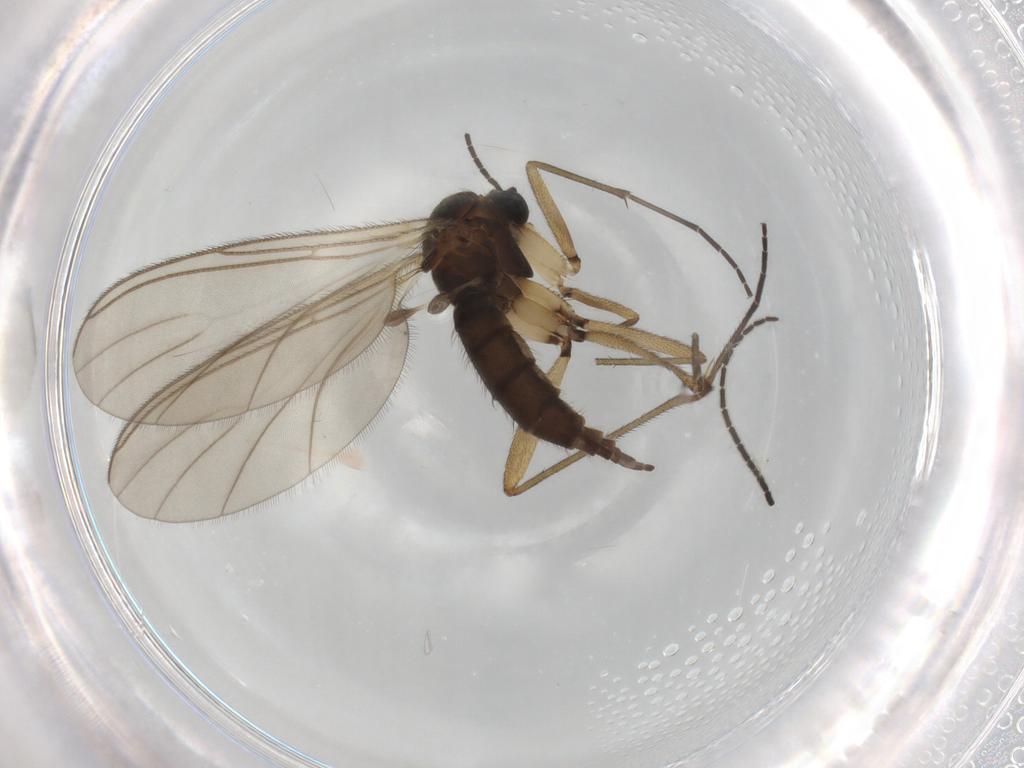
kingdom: Animalia
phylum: Arthropoda
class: Insecta
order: Diptera
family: Sciaridae
